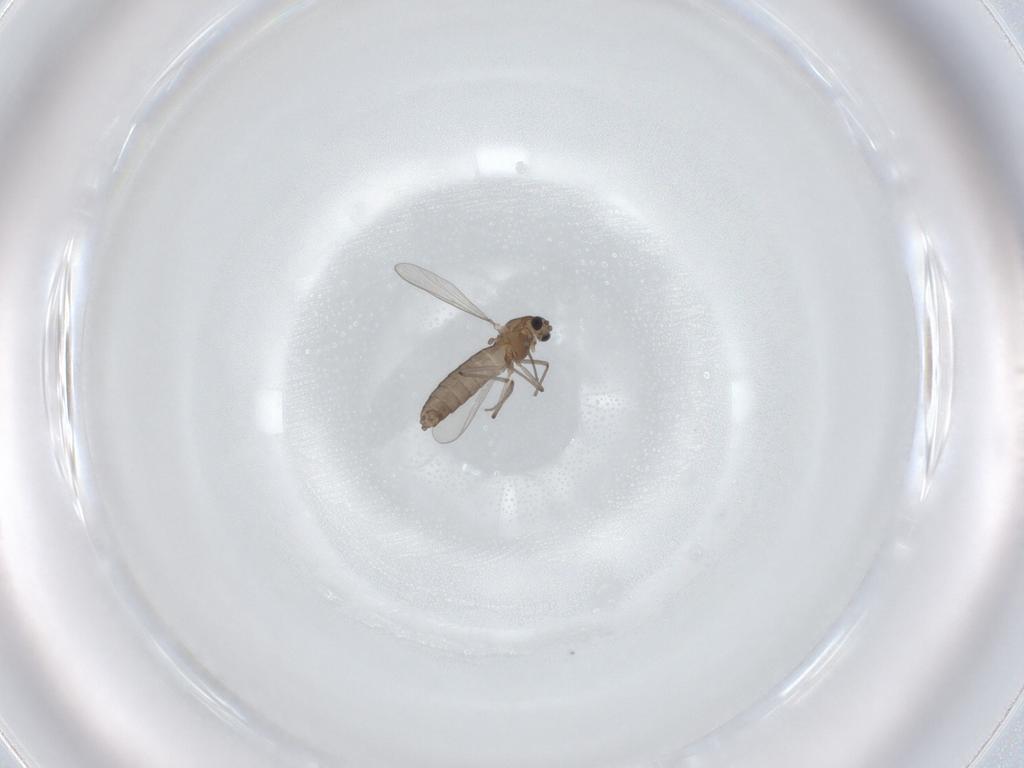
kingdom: Animalia
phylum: Arthropoda
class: Insecta
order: Diptera
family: Chironomidae
